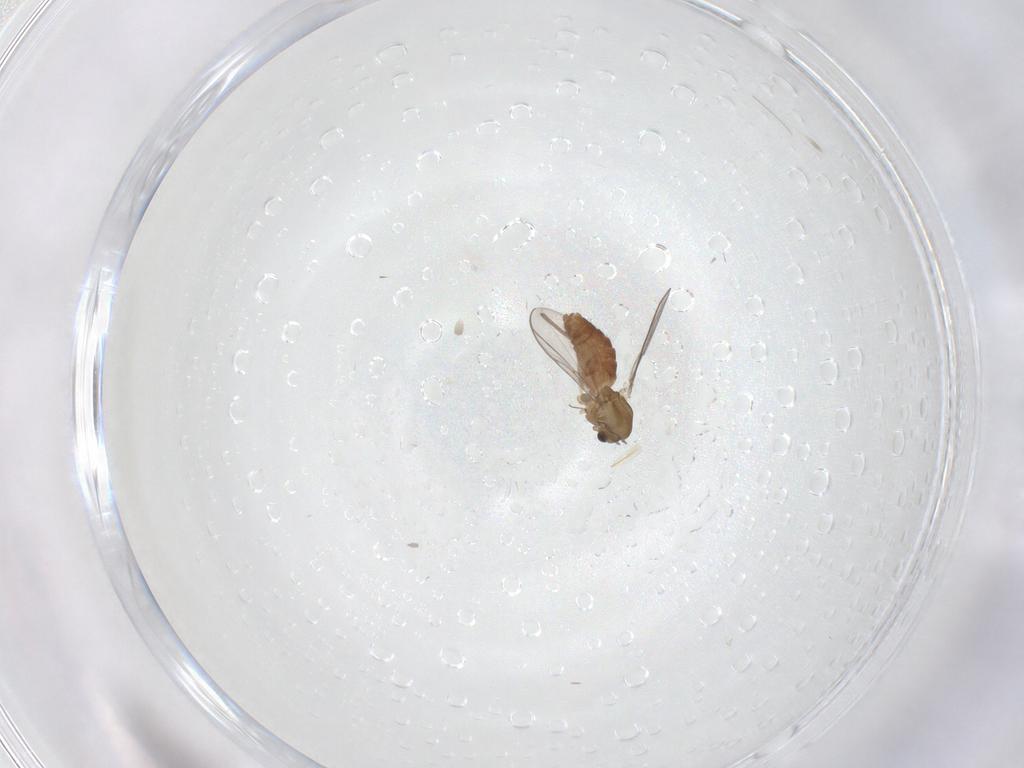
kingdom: Animalia
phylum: Arthropoda
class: Insecta
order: Diptera
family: Chironomidae
